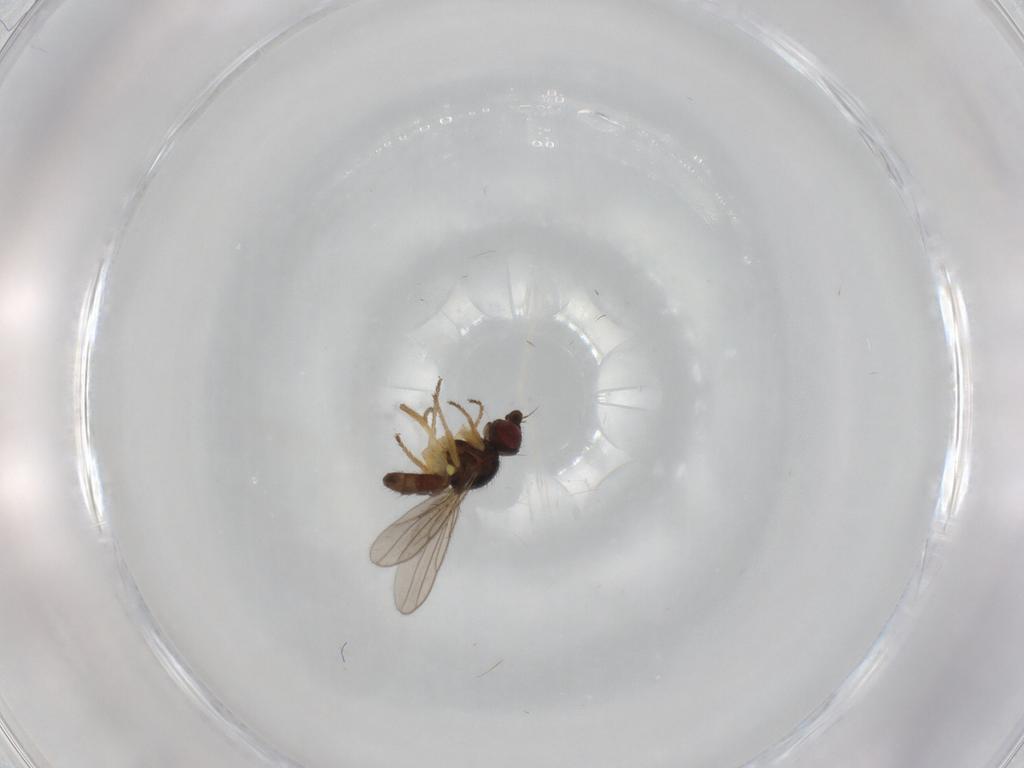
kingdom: Animalia
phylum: Arthropoda
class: Insecta
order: Diptera
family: Chloropidae
